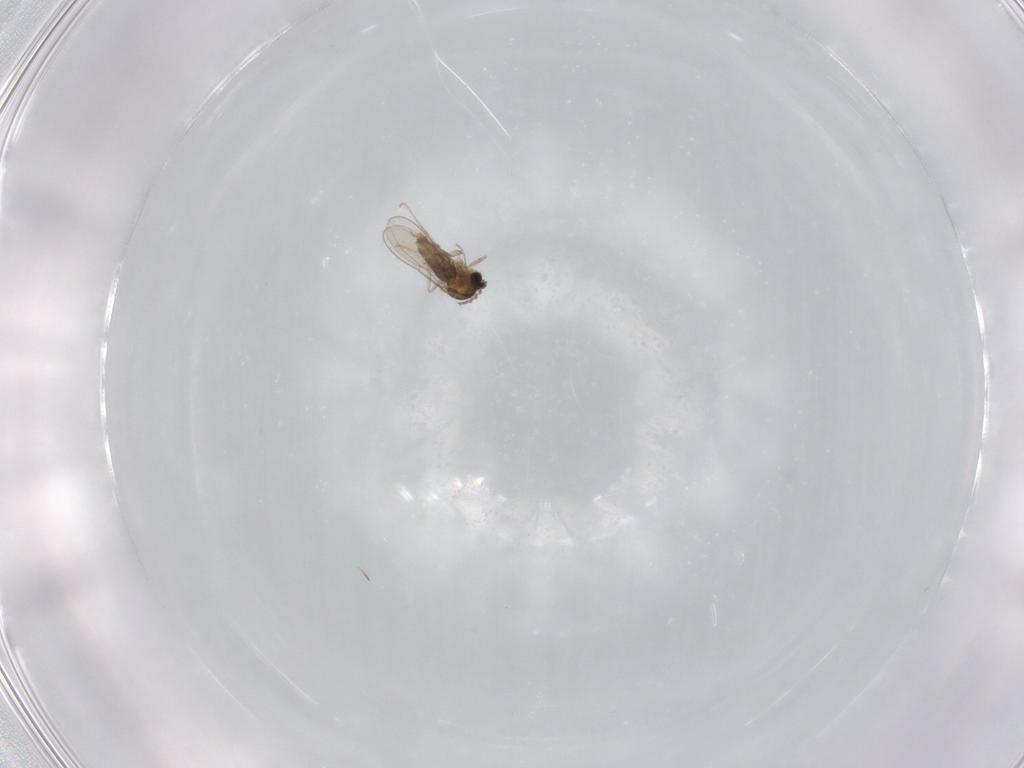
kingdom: Animalia
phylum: Arthropoda
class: Insecta
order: Diptera
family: Cecidomyiidae
